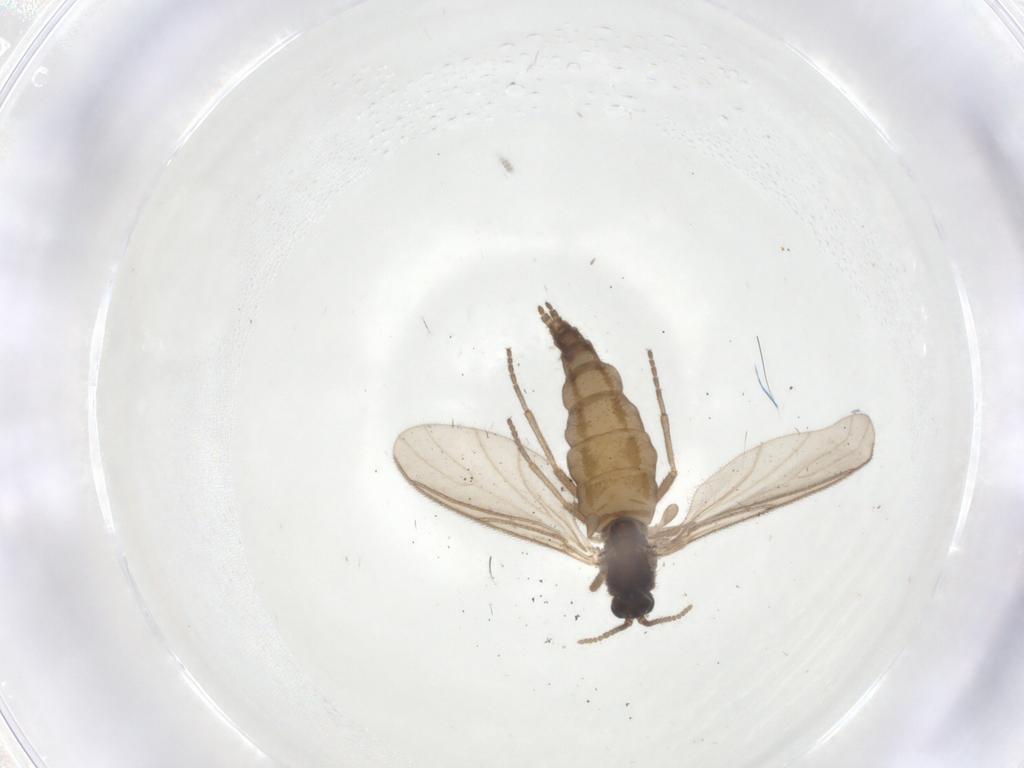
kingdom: Animalia
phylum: Arthropoda
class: Insecta
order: Diptera
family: Sciaridae
